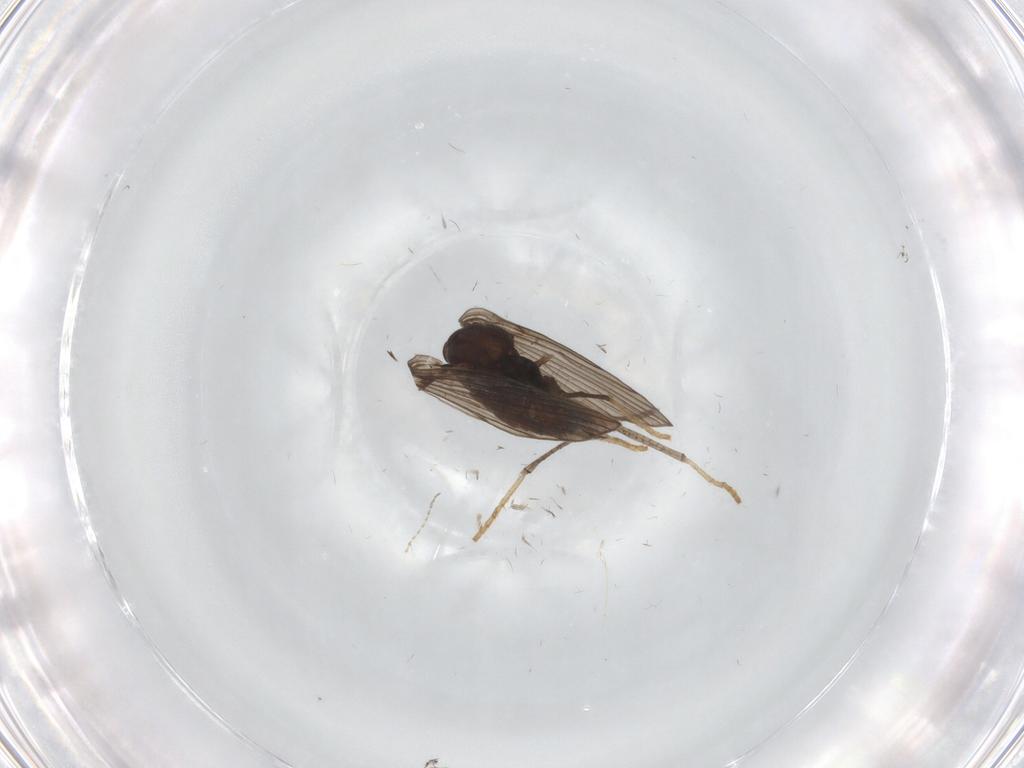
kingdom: Animalia
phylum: Arthropoda
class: Insecta
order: Diptera
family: Psychodidae
